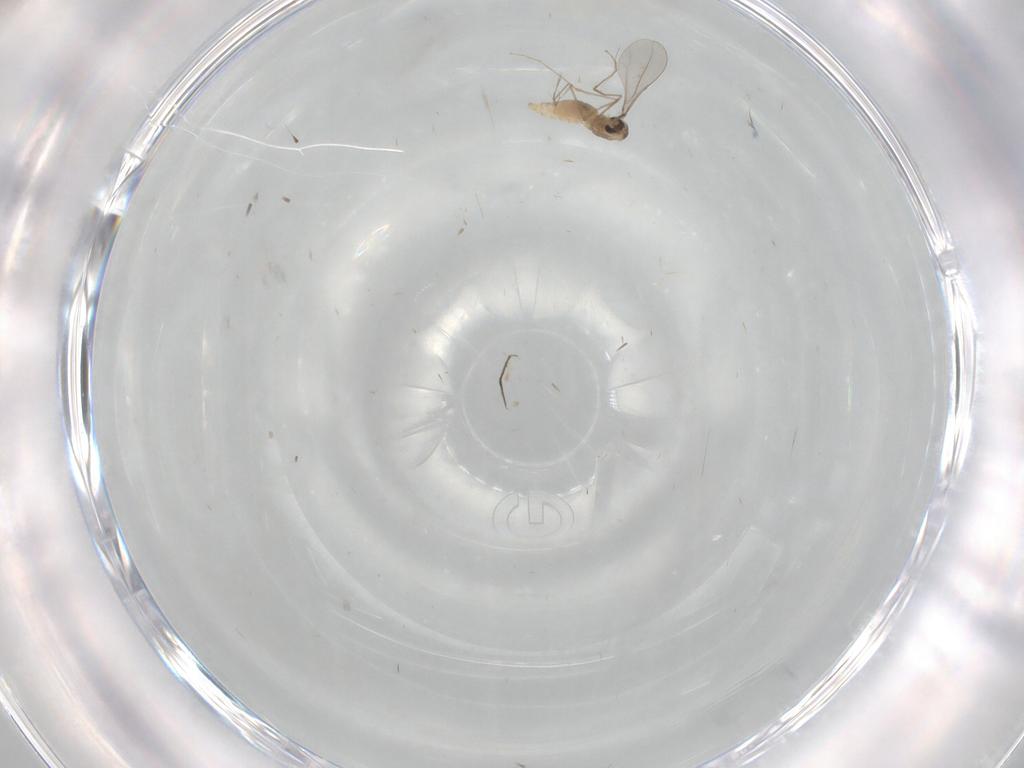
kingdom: Animalia
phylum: Arthropoda
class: Insecta
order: Diptera
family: Cecidomyiidae
